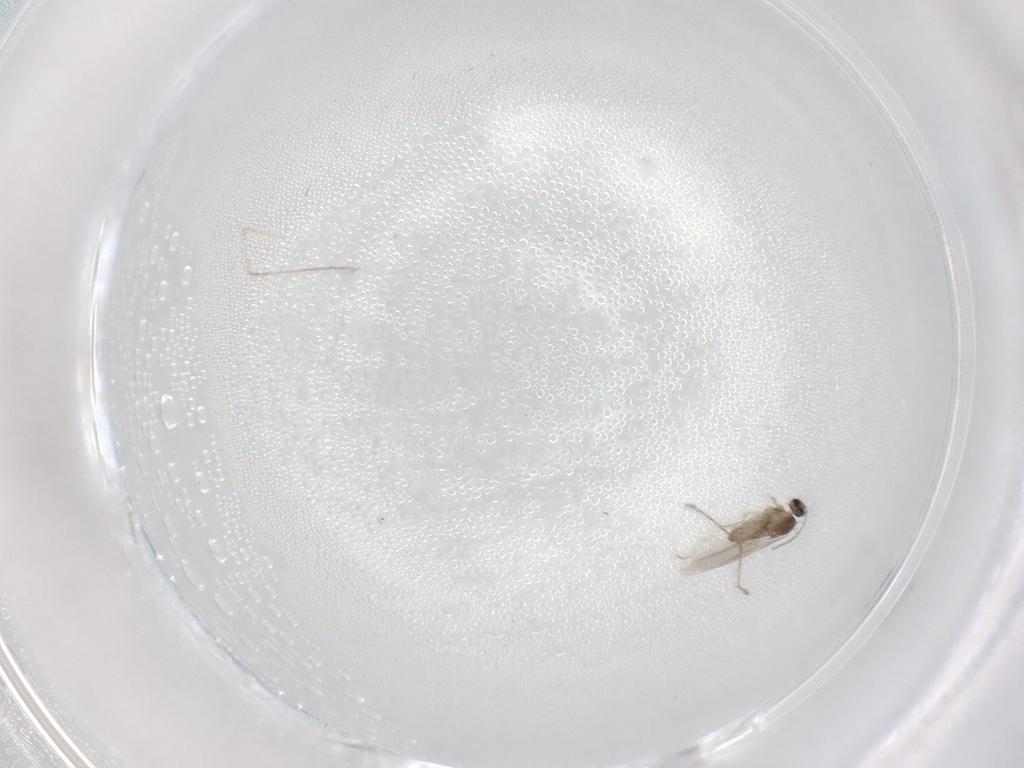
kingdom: Animalia
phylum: Arthropoda
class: Insecta
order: Diptera
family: Cecidomyiidae
